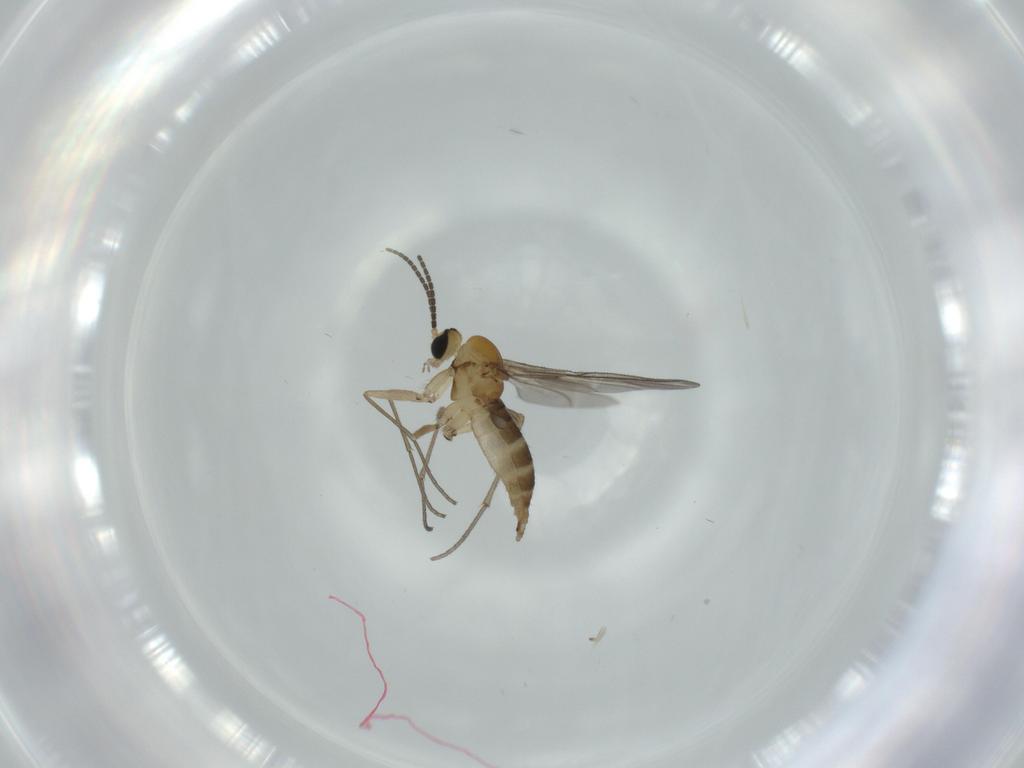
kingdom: Animalia
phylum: Arthropoda
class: Insecta
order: Diptera
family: Sciaridae
